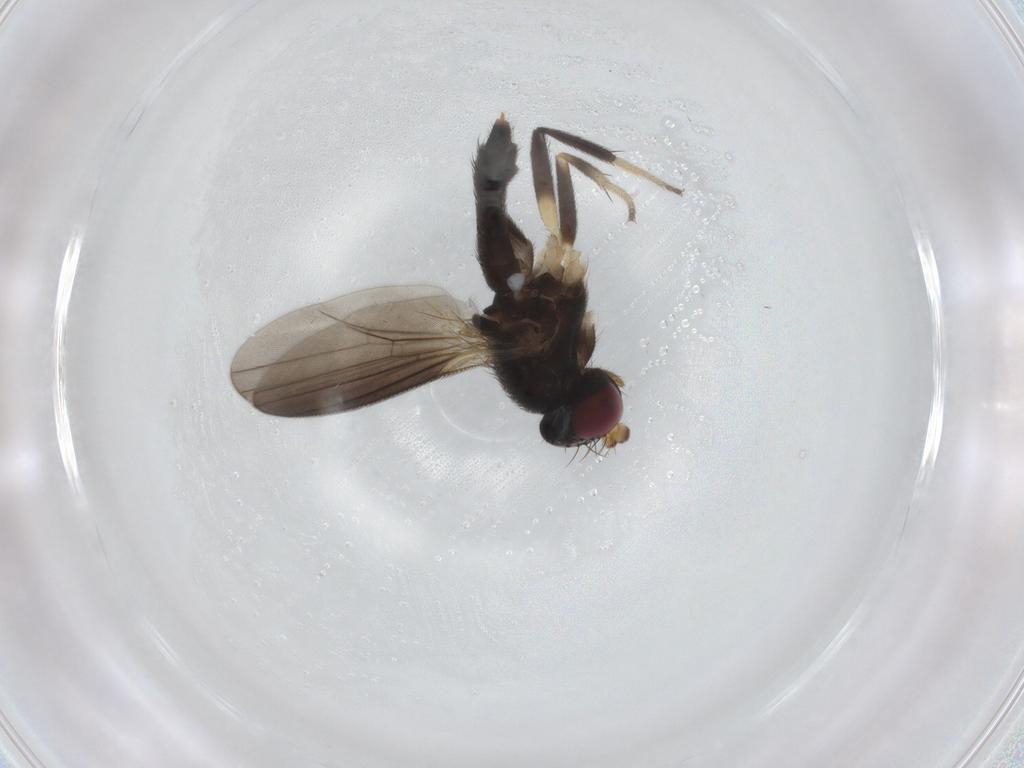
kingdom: Animalia
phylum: Arthropoda
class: Insecta
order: Diptera
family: Clusiidae
